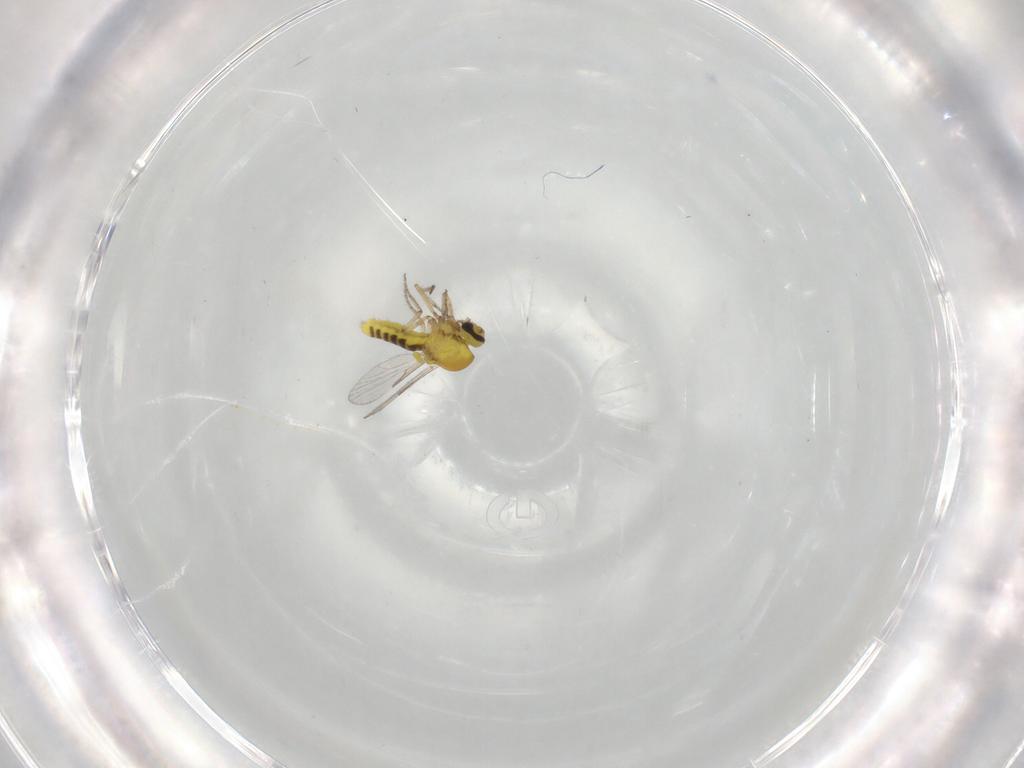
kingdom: Animalia
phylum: Arthropoda
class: Insecta
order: Diptera
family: Ceratopogonidae
